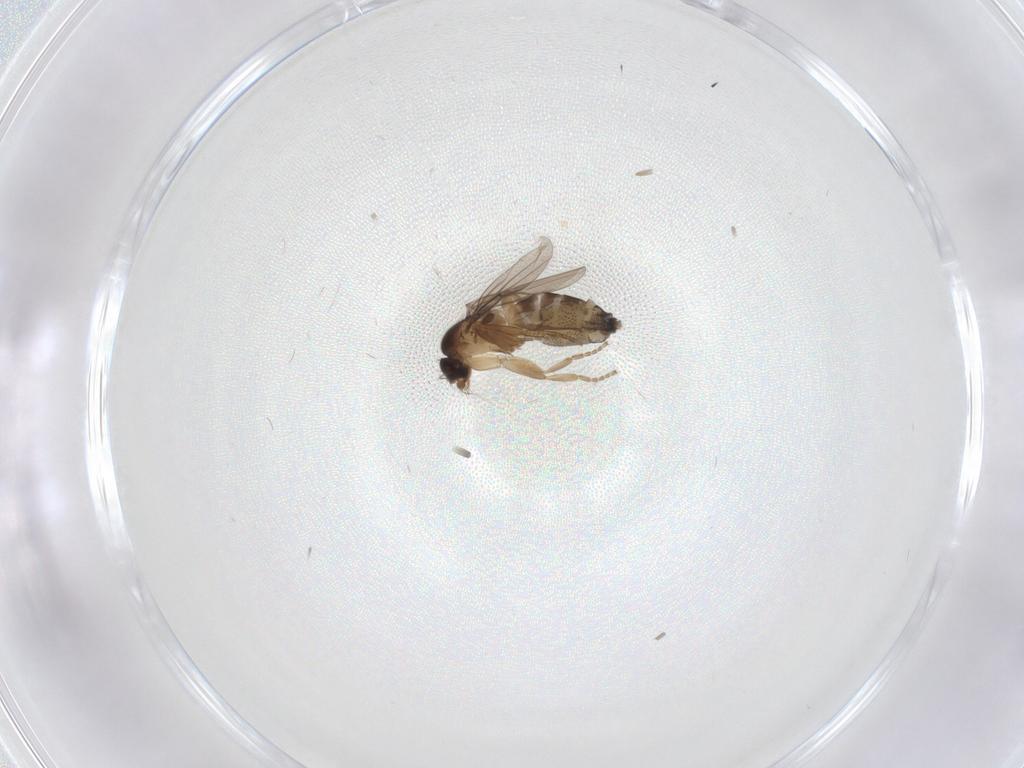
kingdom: Animalia
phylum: Arthropoda
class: Insecta
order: Diptera
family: Phoridae
